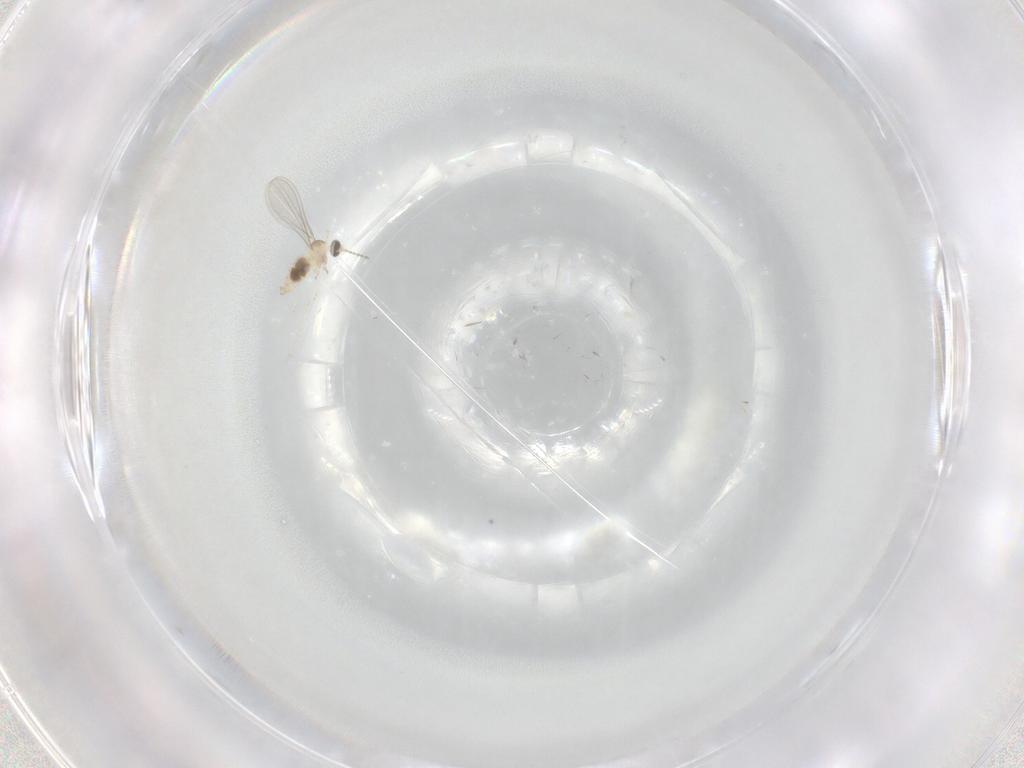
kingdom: Animalia
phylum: Arthropoda
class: Insecta
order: Diptera
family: Cecidomyiidae
